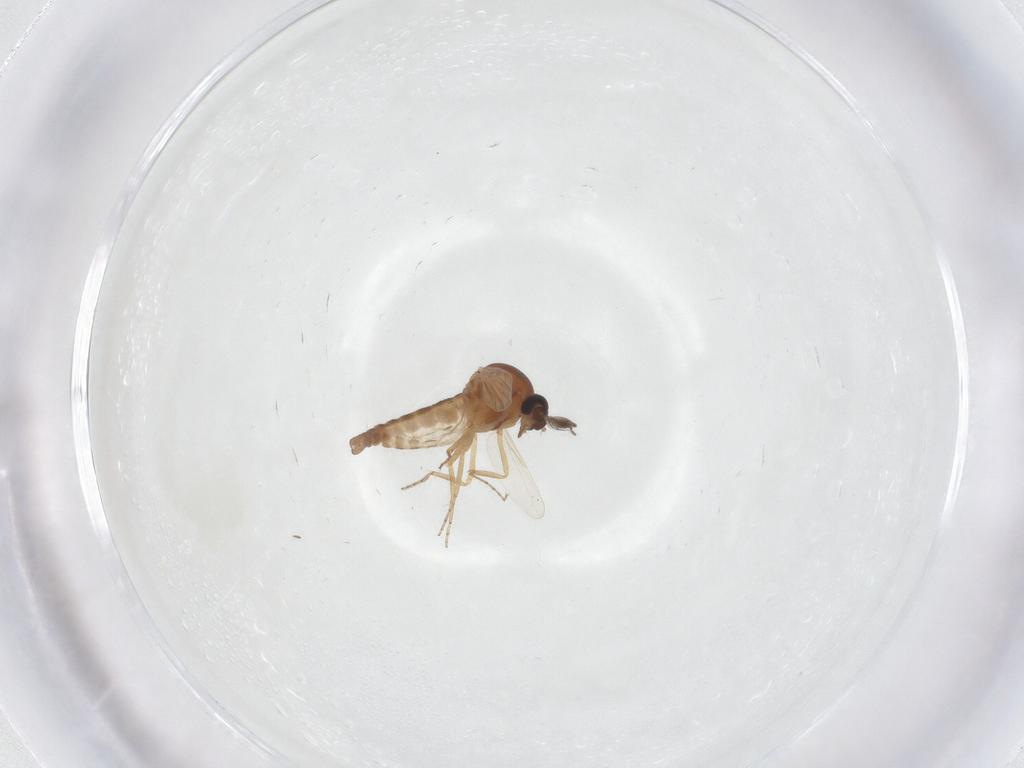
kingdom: Animalia
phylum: Arthropoda
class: Insecta
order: Diptera
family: Ceratopogonidae
